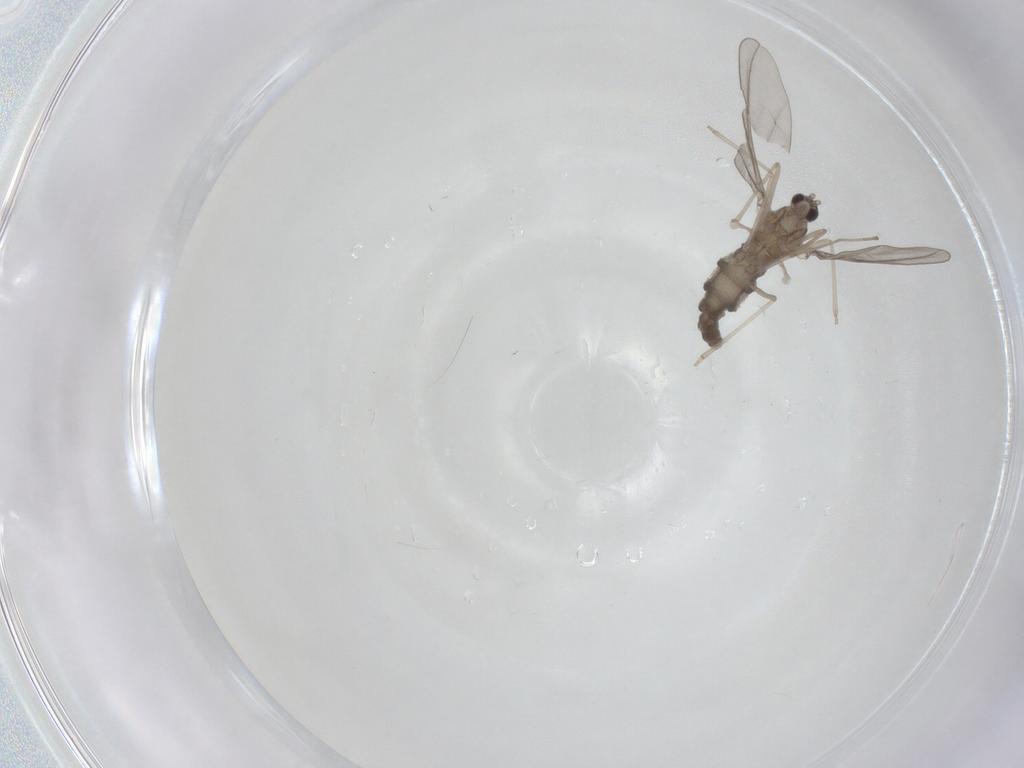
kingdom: Animalia
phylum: Arthropoda
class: Insecta
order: Diptera
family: Cecidomyiidae
